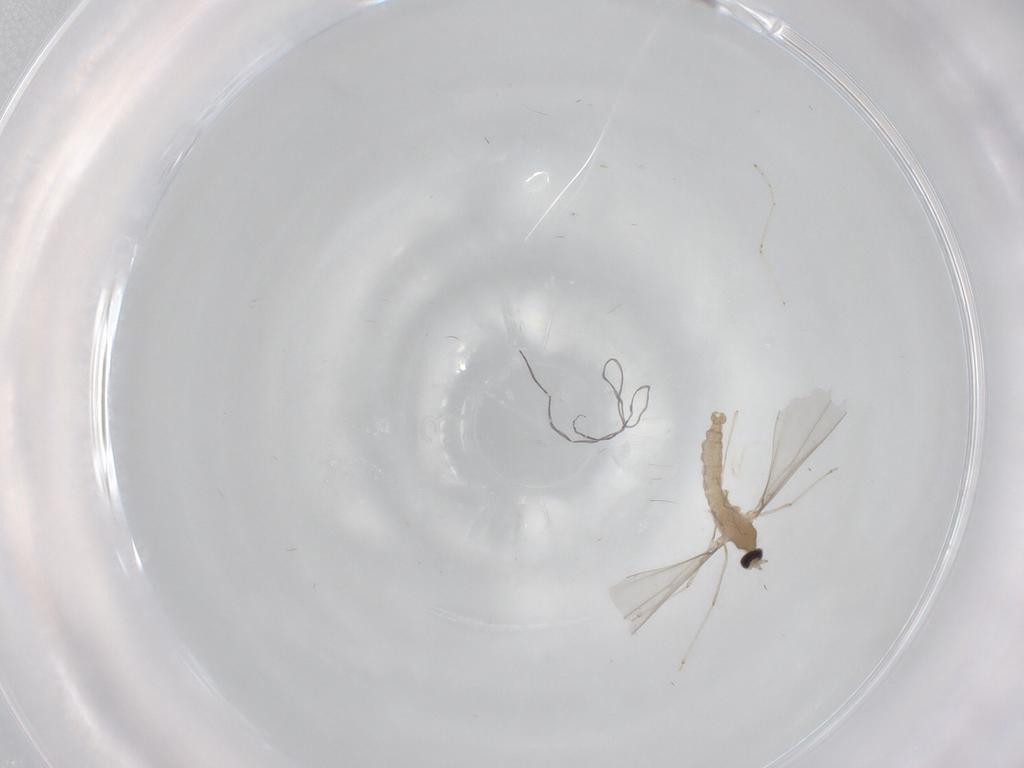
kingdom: Animalia
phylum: Arthropoda
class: Insecta
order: Diptera
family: Cecidomyiidae
